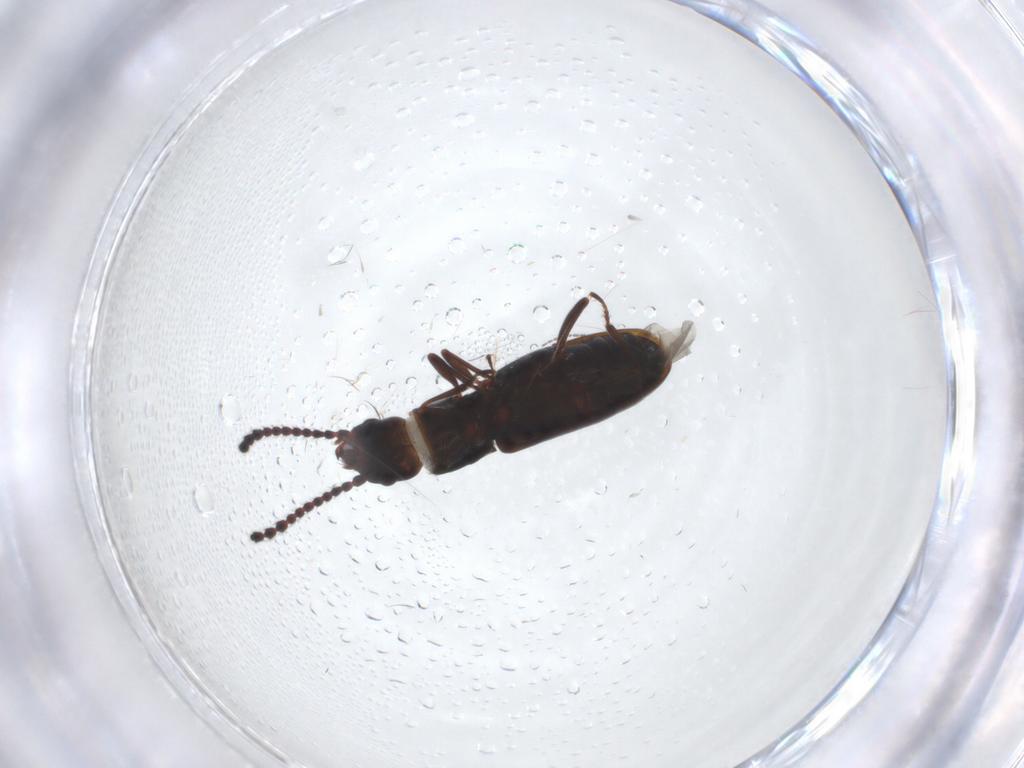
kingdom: Animalia
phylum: Arthropoda
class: Insecta
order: Coleoptera
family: Laemophloeidae
